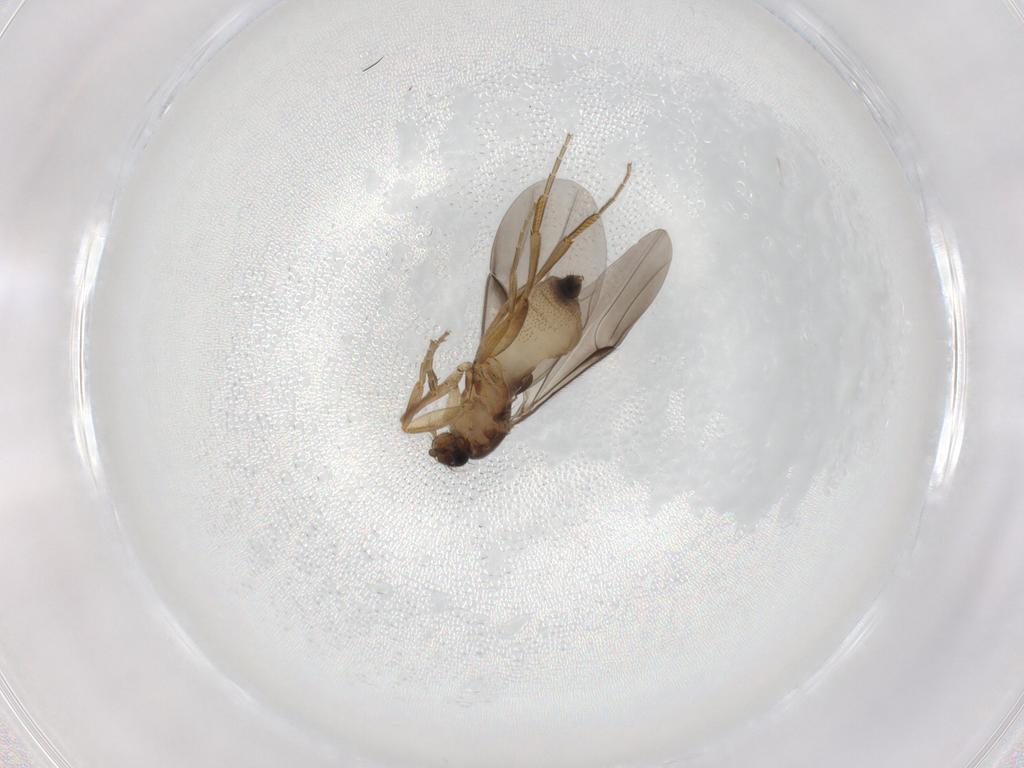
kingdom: Animalia
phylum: Arthropoda
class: Insecta
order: Diptera
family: Phoridae
